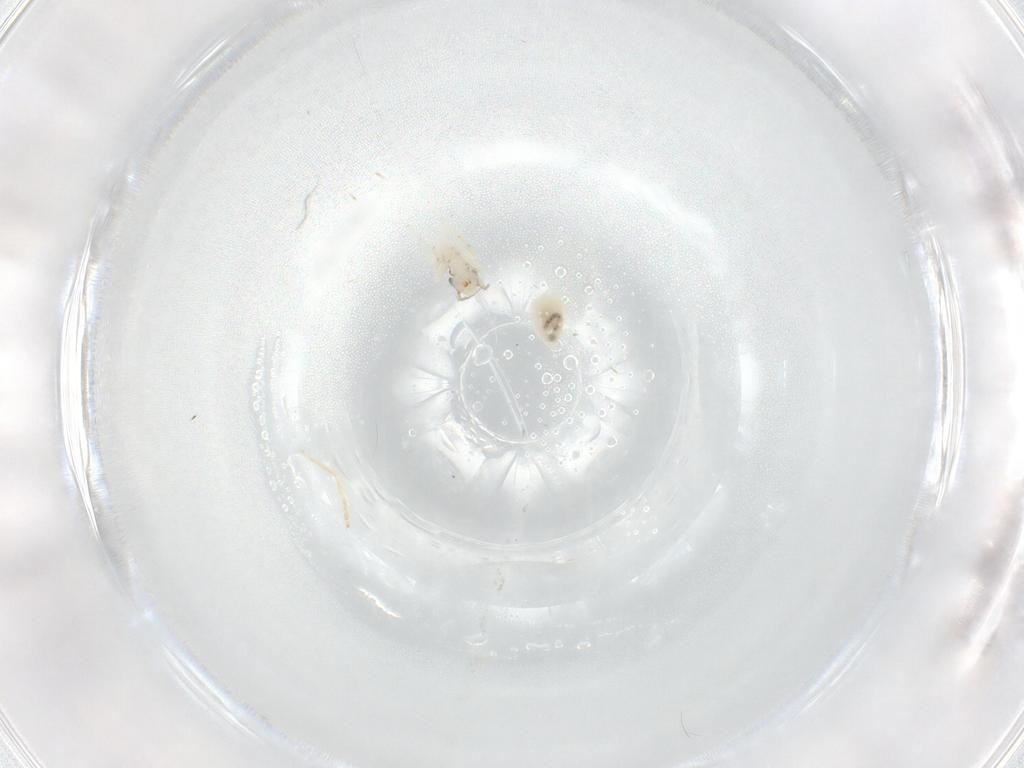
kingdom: Animalia
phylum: Arthropoda
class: Insecta
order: Psocodea
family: Lepidopsocidae
